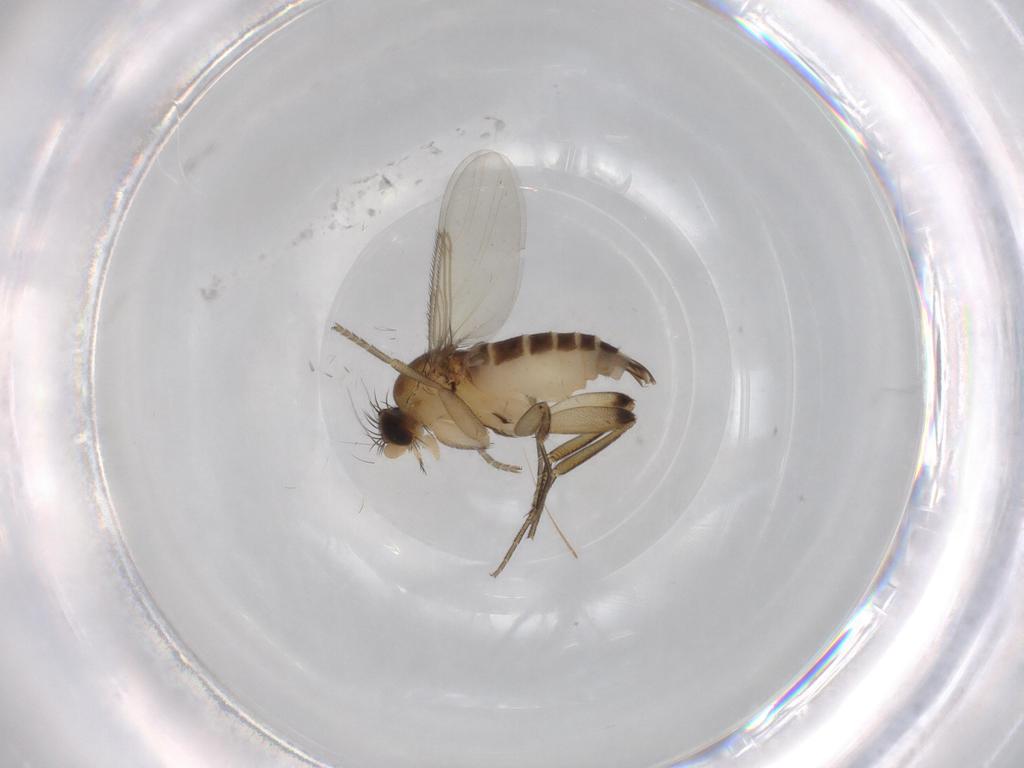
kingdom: Animalia
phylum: Arthropoda
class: Insecta
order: Diptera
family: Phoridae
